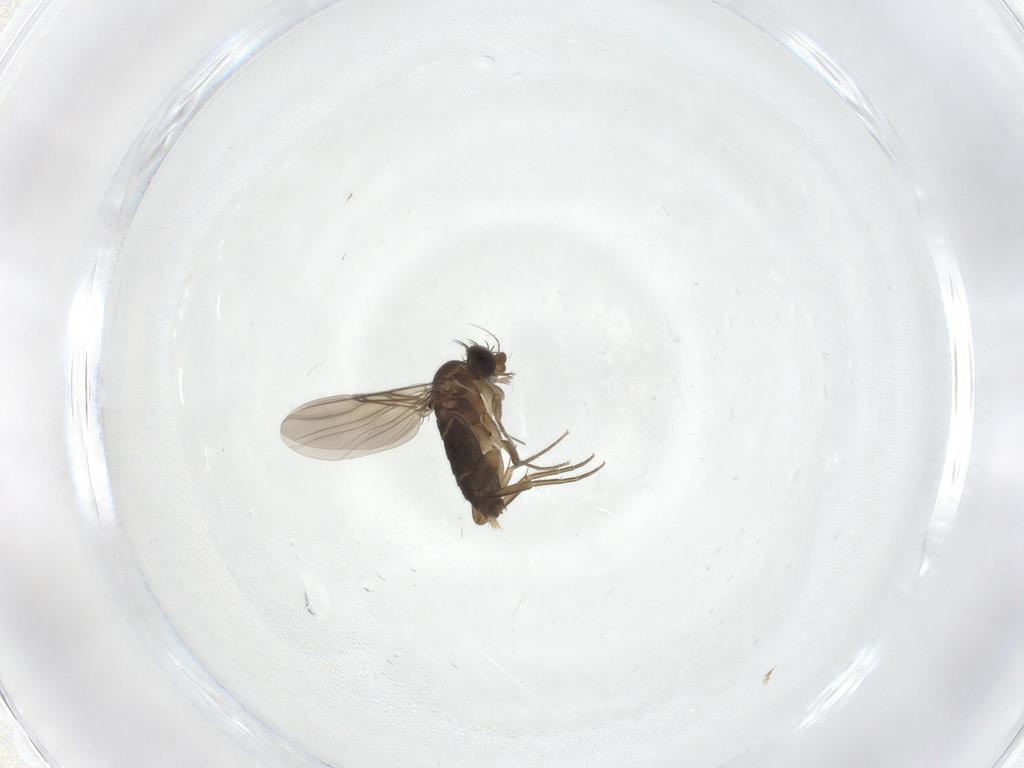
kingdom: Animalia
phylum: Arthropoda
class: Insecta
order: Diptera
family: Phoridae
